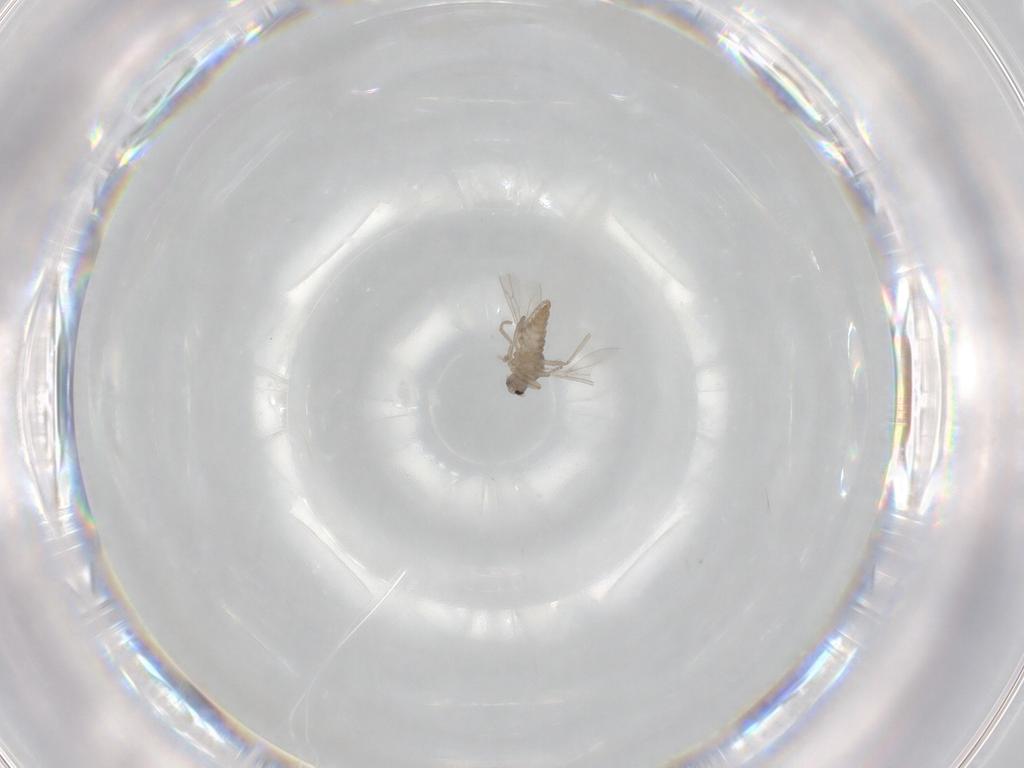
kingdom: Animalia
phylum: Arthropoda
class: Insecta
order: Diptera
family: Cecidomyiidae
